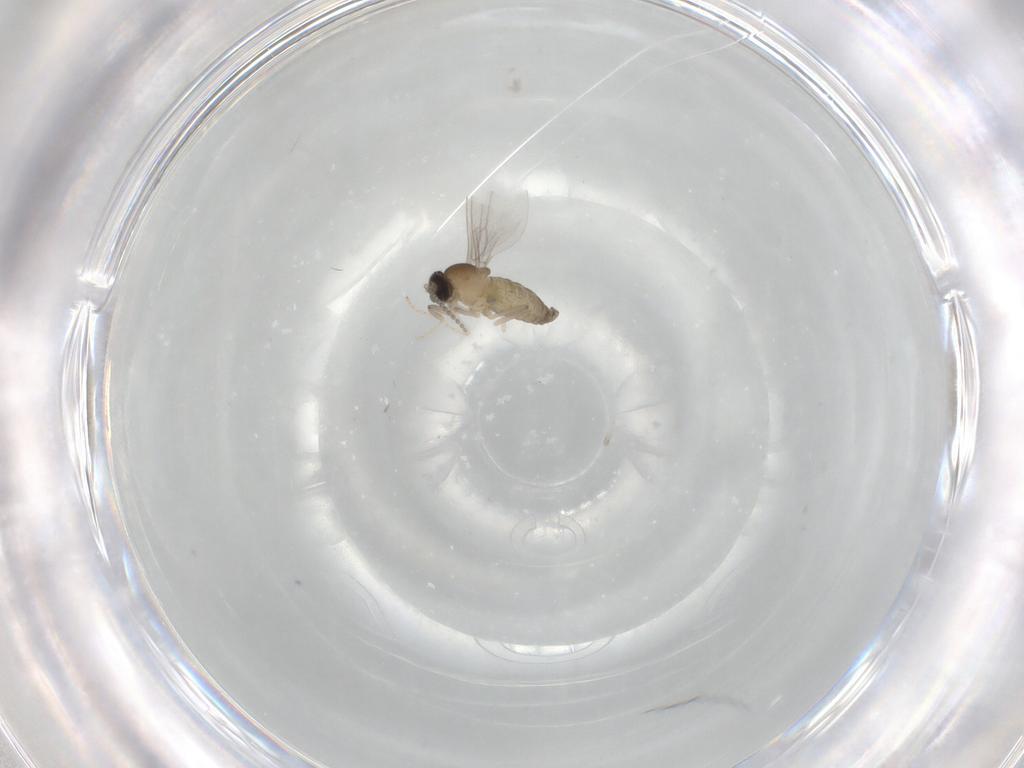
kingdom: Animalia
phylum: Arthropoda
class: Insecta
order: Diptera
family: Cecidomyiidae
